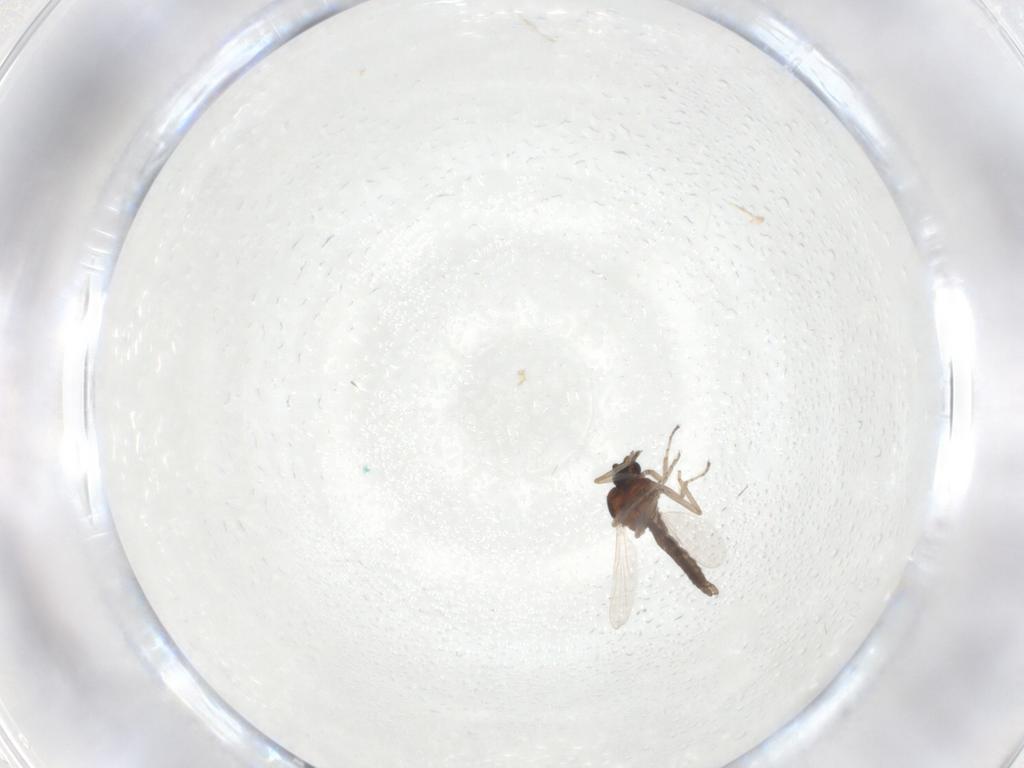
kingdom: Animalia
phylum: Arthropoda
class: Insecta
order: Diptera
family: Ceratopogonidae
